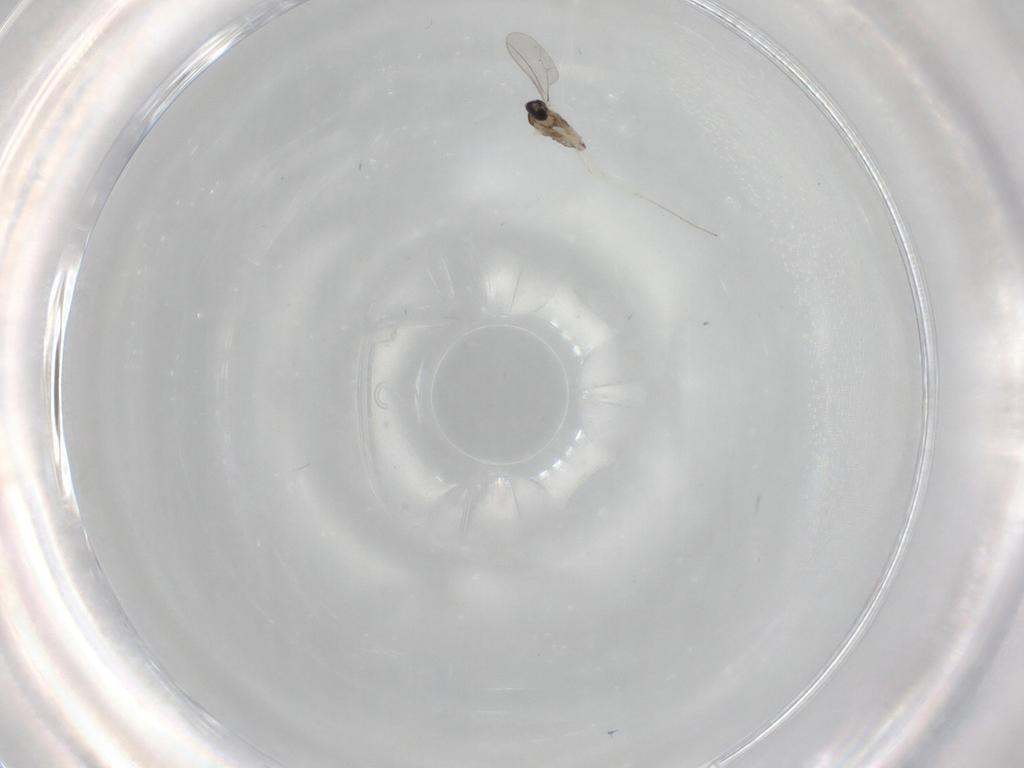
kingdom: Animalia
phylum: Arthropoda
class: Insecta
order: Diptera
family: Cecidomyiidae
